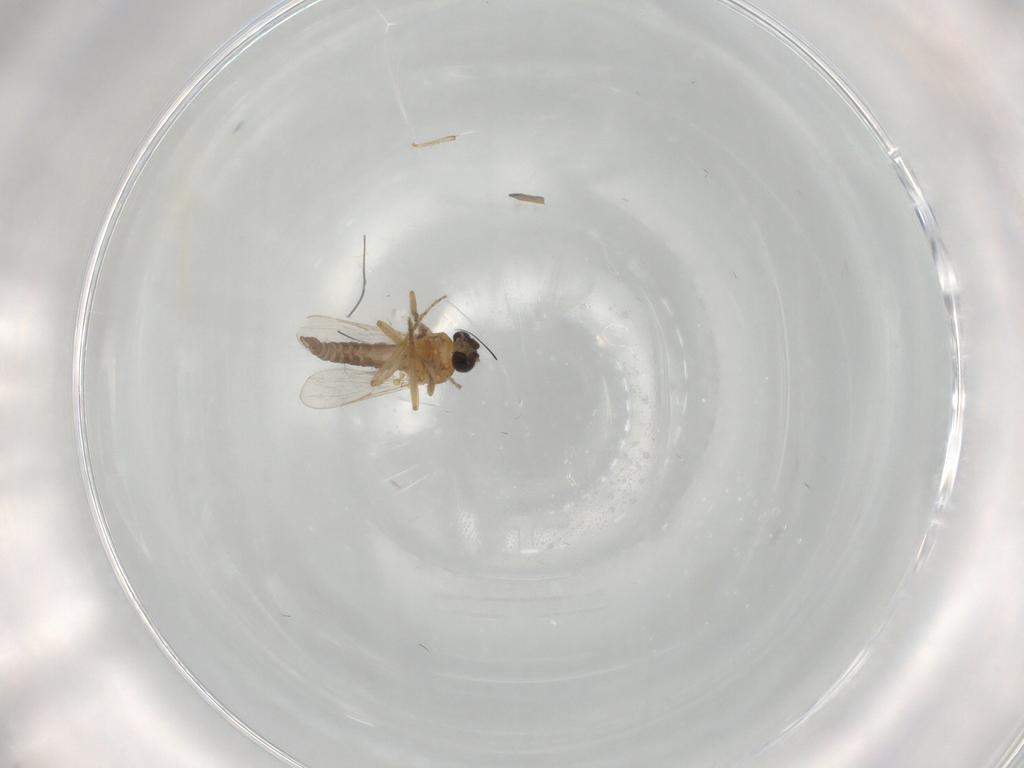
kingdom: Animalia
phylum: Arthropoda
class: Insecta
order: Diptera
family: Ceratopogonidae
